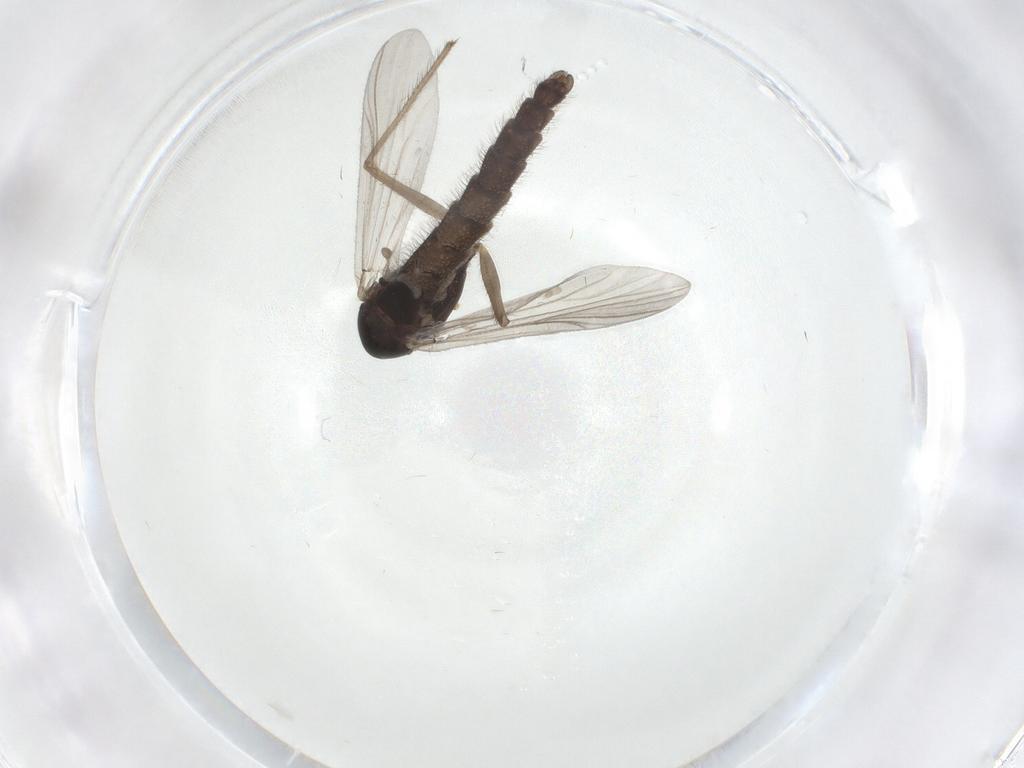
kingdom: Animalia
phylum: Arthropoda
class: Insecta
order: Diptera
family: Chironomidae
